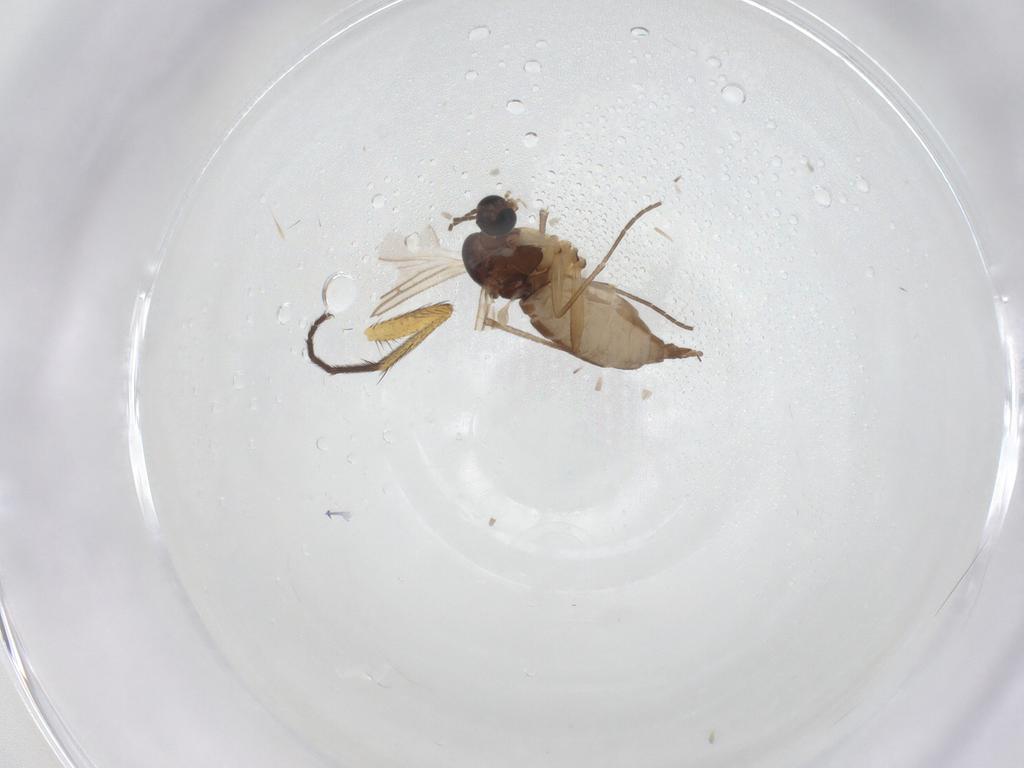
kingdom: Animalia
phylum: Arthropoda
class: Insecta
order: Diptera
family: Sciaridae
